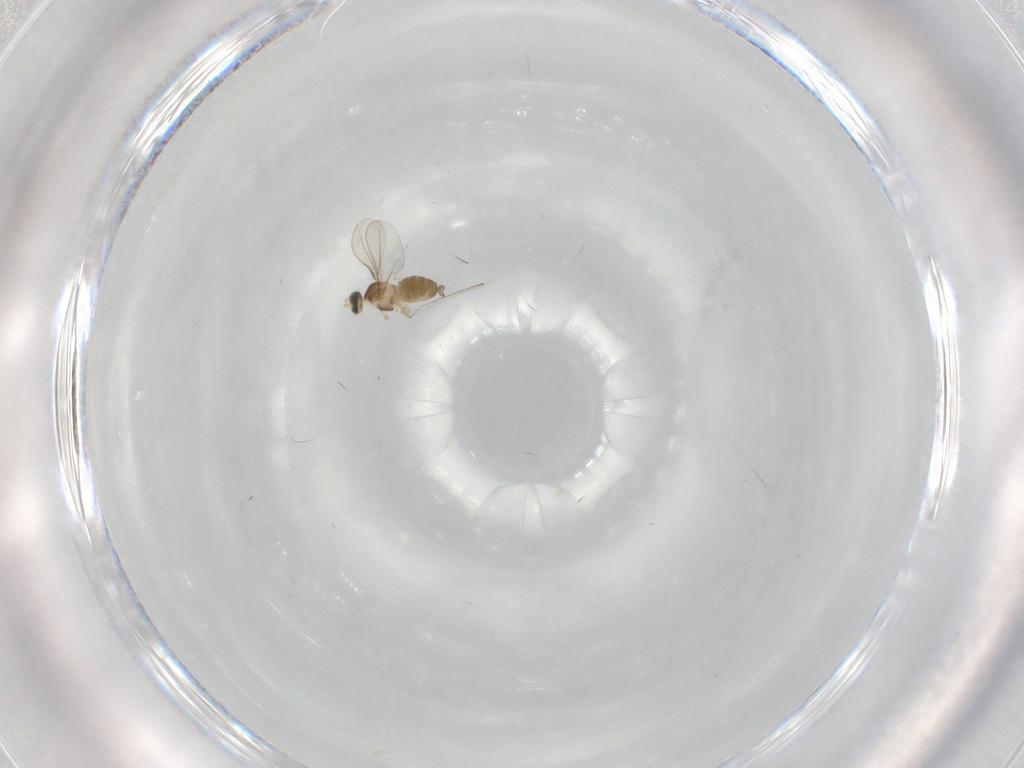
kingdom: Animalia
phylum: Arthropoda
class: Insecta
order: Diptera
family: Cecidomyiidae
